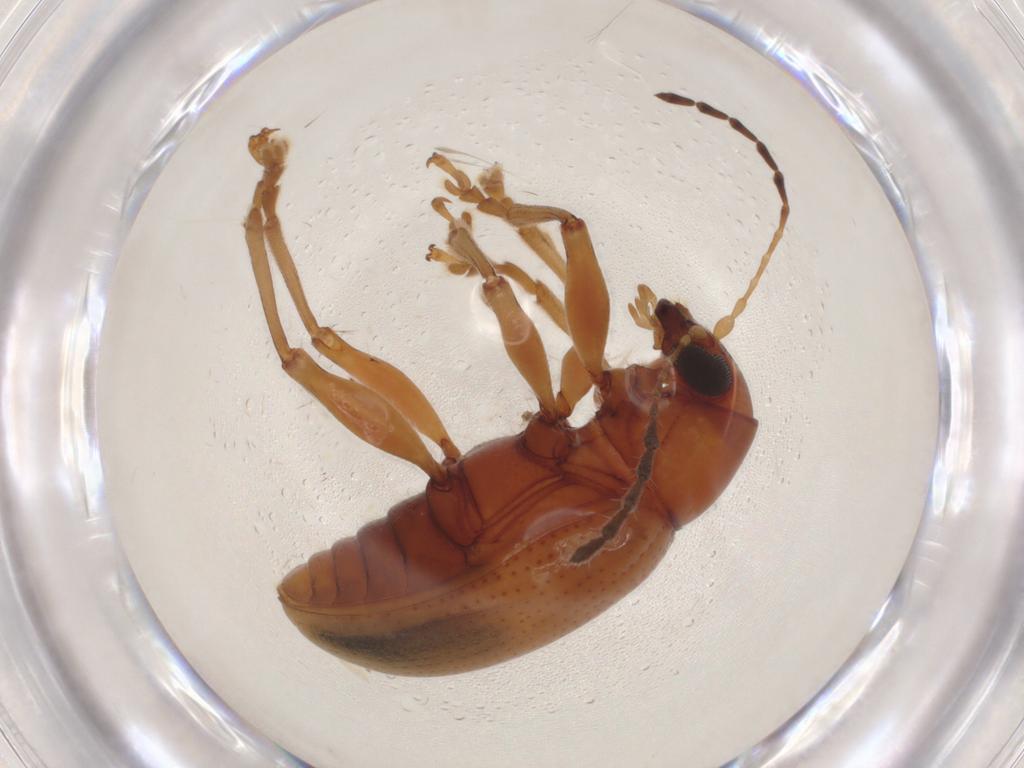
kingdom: Animalia
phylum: Arthropoda
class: Insecta
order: Coleoptera
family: Chrysomelidae
